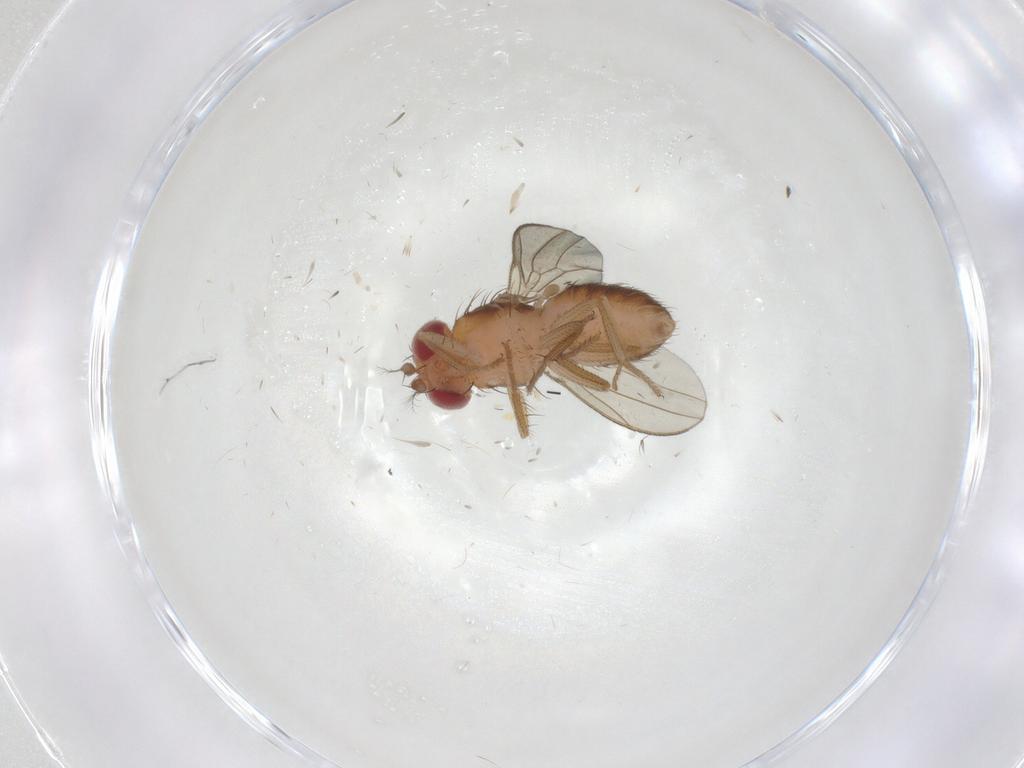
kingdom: Animalia
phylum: Arthropoda
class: Insecta
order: Diptera
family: Drosophilidae
